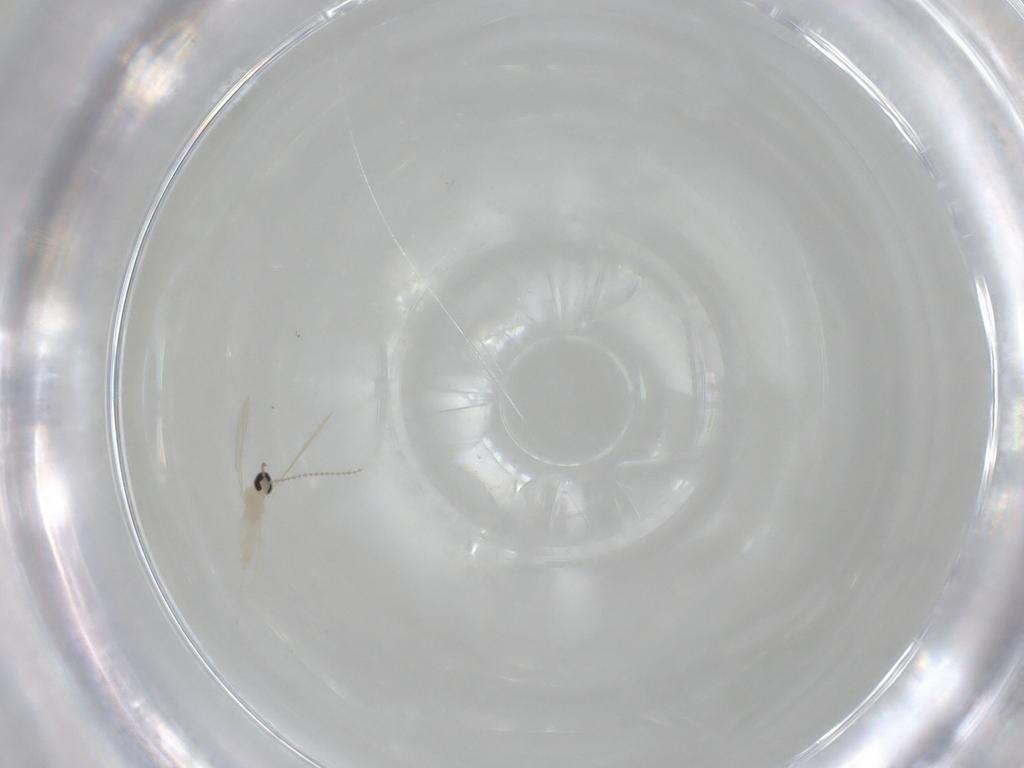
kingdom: Animalia
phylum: Arthropoda
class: Insecta
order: Diptera
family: Cecidomyiidae
